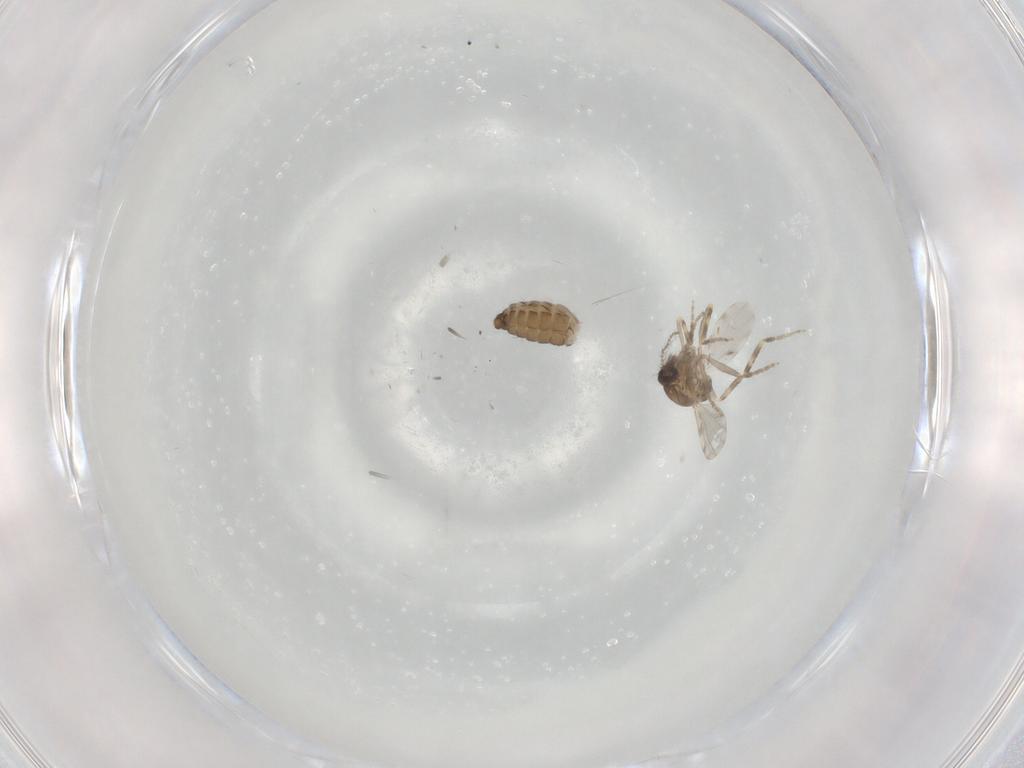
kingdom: Animalia
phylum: Arthropoda
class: Insecta
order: Diptera
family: Ceratopogonidae
